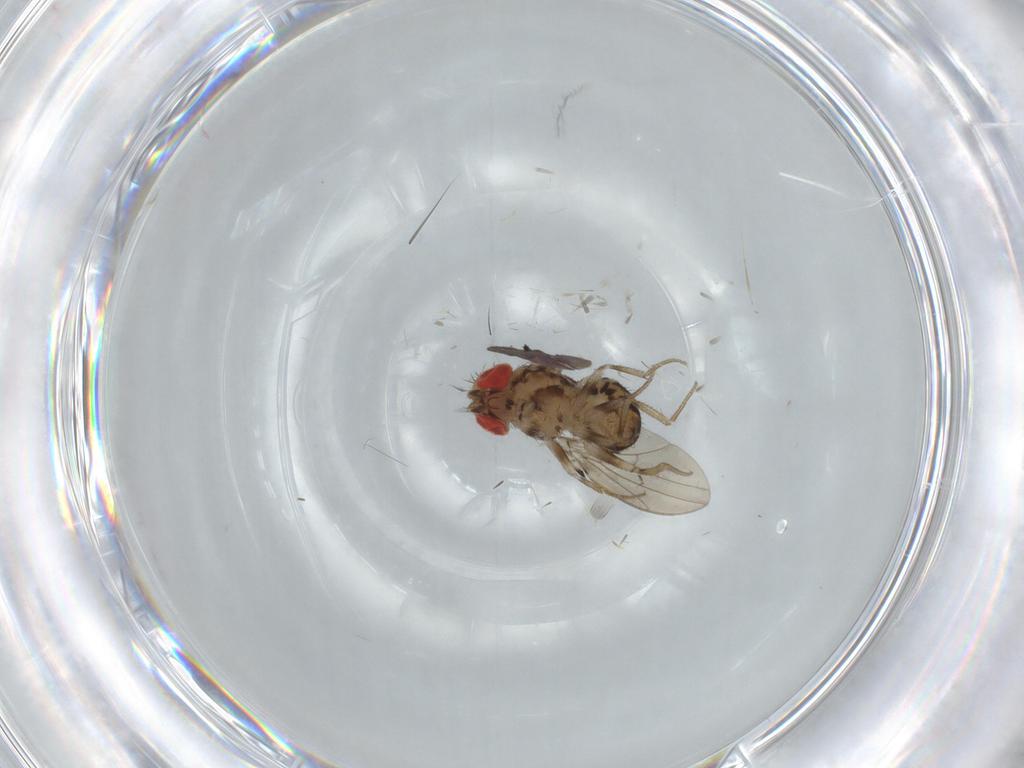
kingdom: Animalia
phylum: Arthropoda
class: Insecta
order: Diptera
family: Drosophilidae
